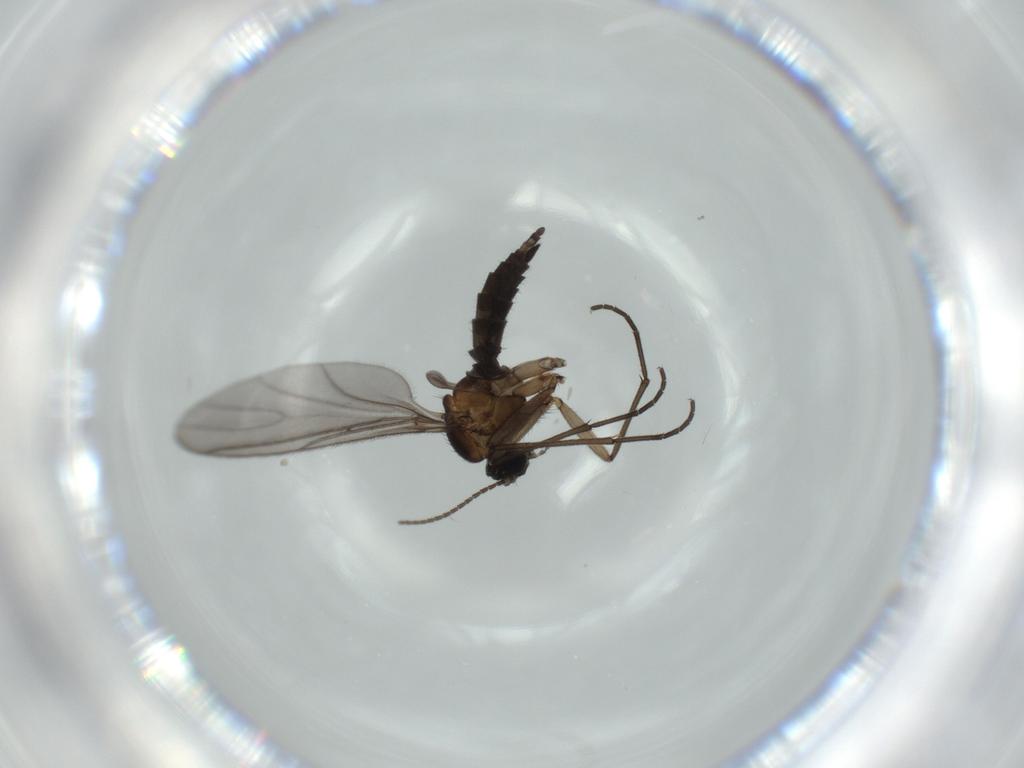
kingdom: Animalia
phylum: Arthropoda
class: Insecta
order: Diptera
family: Sciaridae
